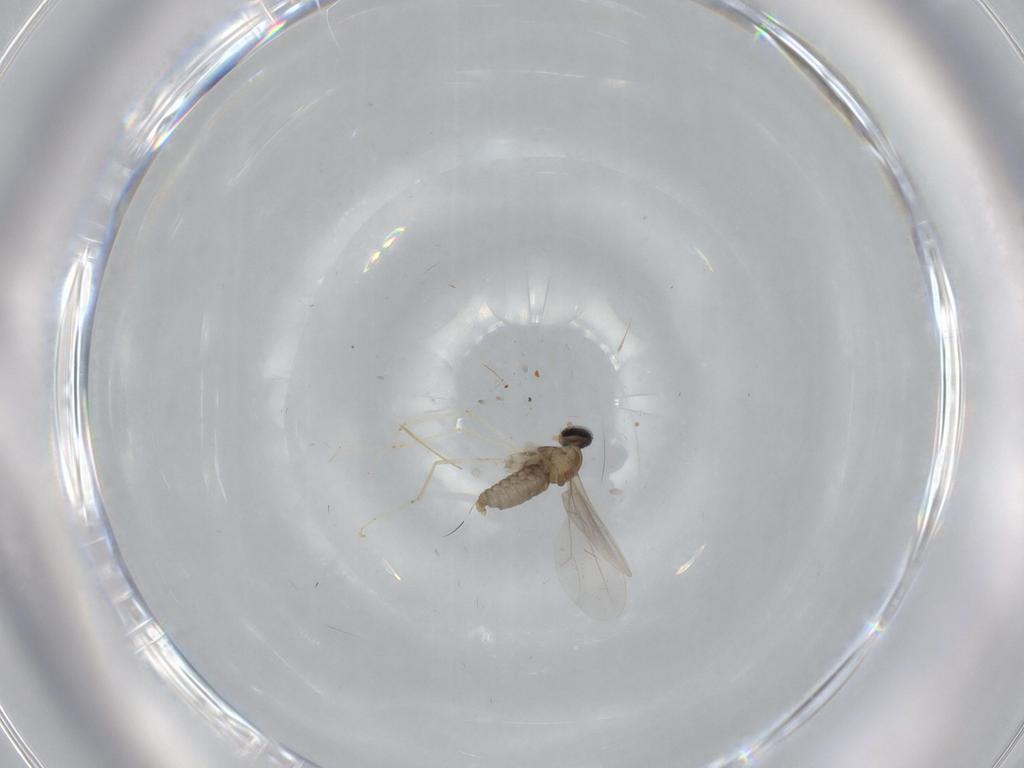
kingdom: Animalia
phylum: Arthropoda
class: Insecta
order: Diptera
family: Cecidomyiidae
